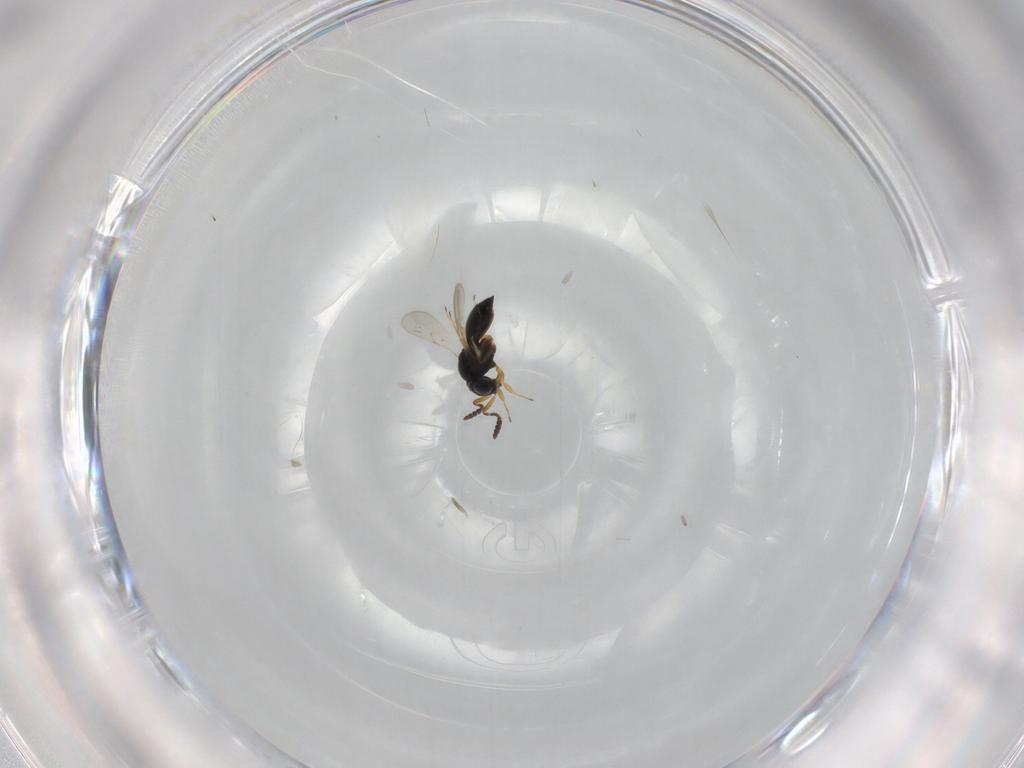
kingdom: Animalia
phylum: Arthropoda
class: Insecta
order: Hymenoptera
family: Scelionidae
